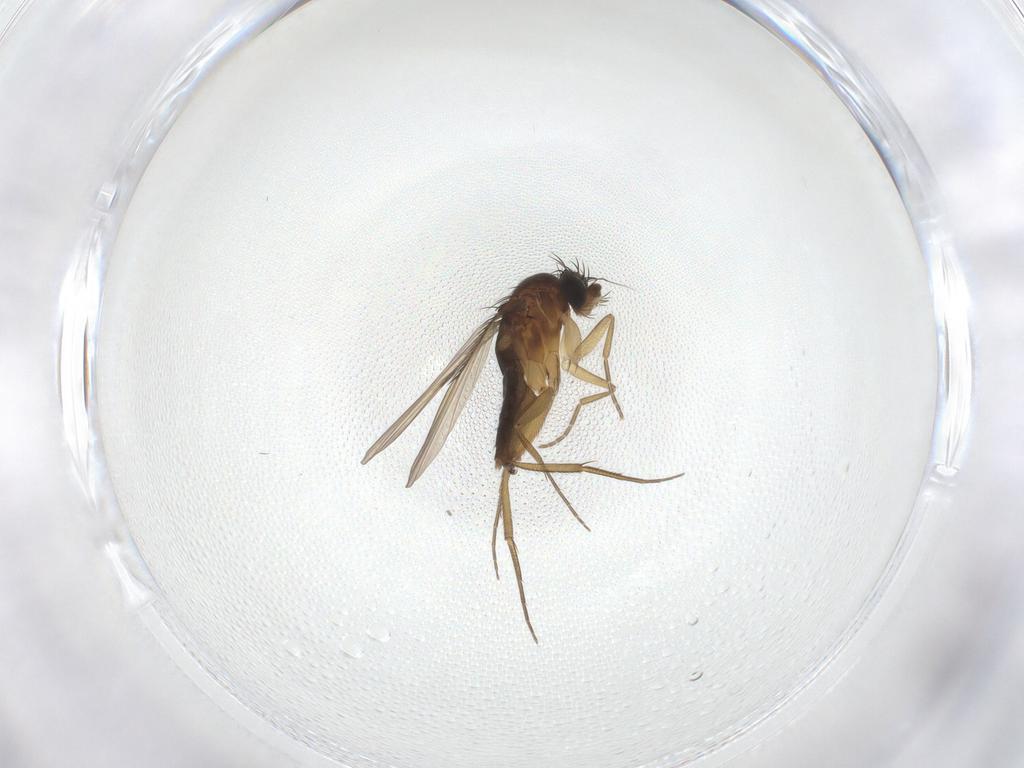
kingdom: Animalia
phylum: Arthropoda
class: Insecta
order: Diptera
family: Phoridae
